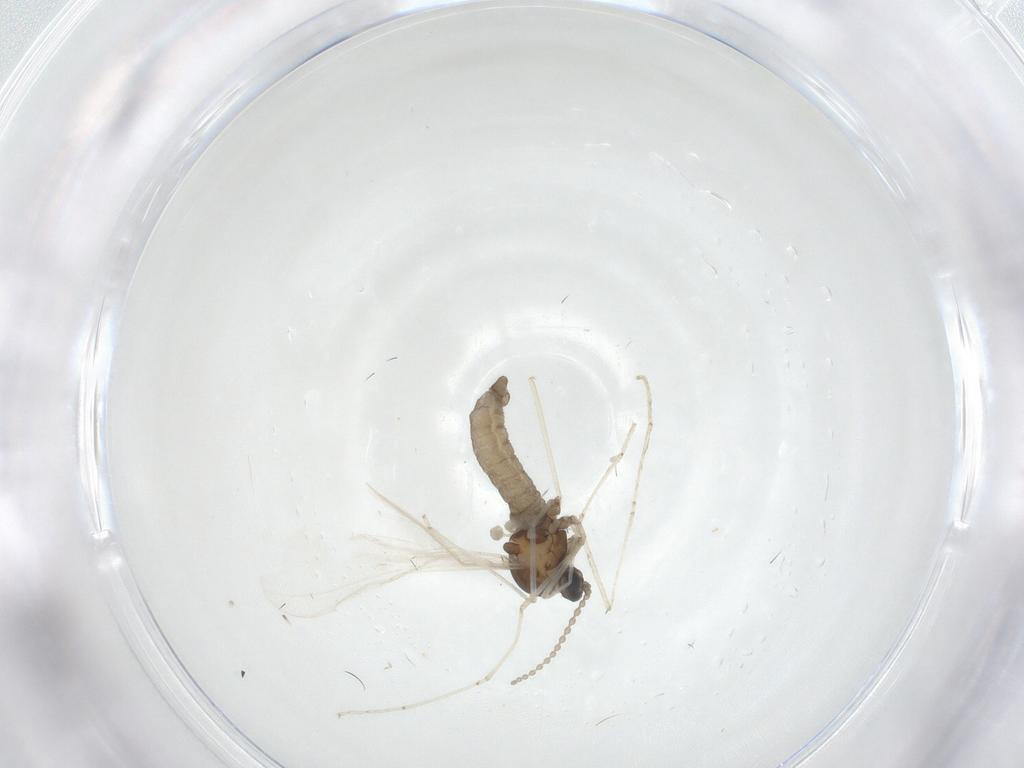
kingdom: Animalia
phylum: Arthropoda
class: Insecta
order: Diptera
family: Cecidomyiidae
